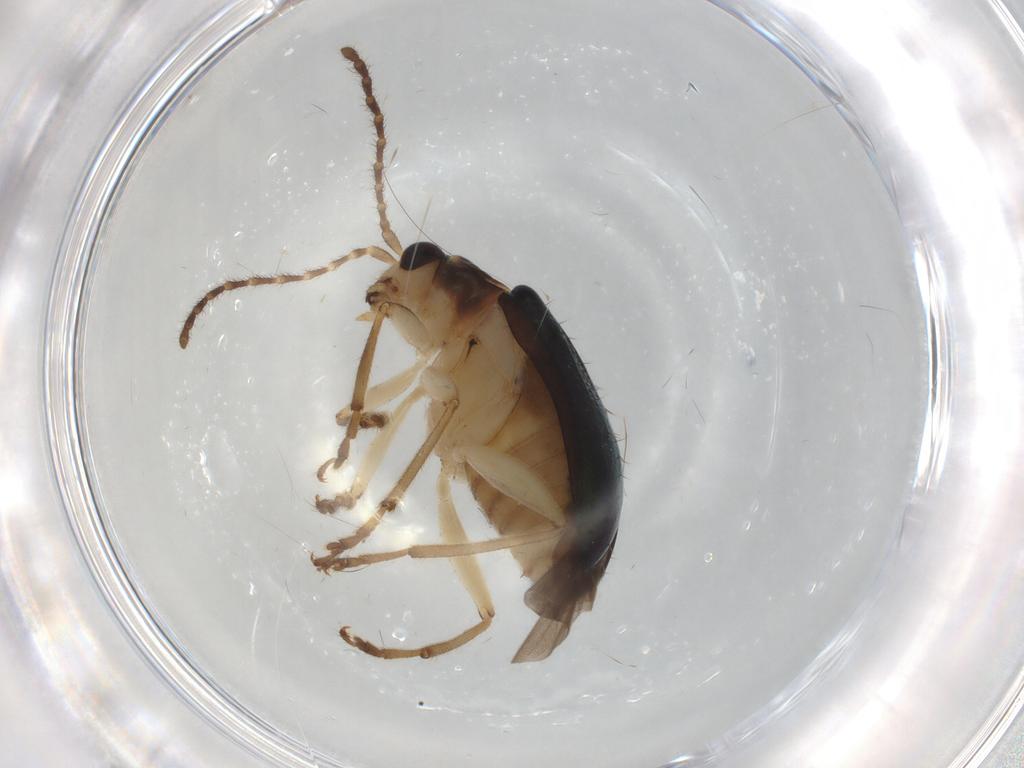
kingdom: Animalia
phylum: Arthropoda
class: Insecta
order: Coleoptera
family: Chrysomelidae
